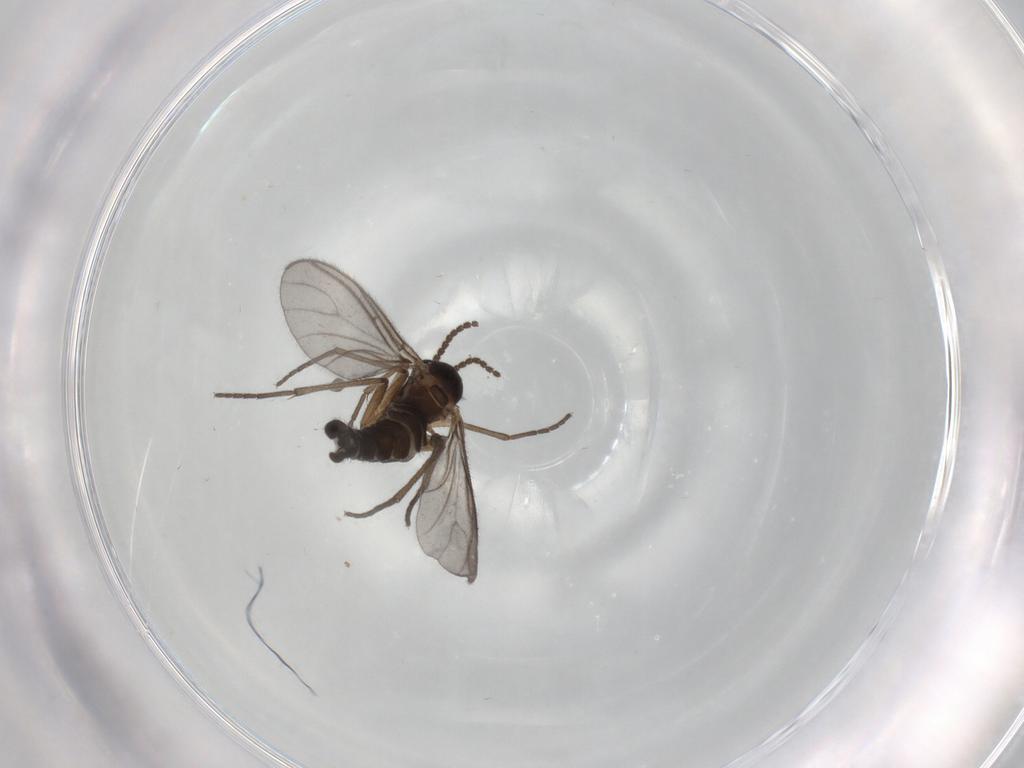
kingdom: Animalia
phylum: Arthropoda
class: Insecta
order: Diptera
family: Sciaridae
